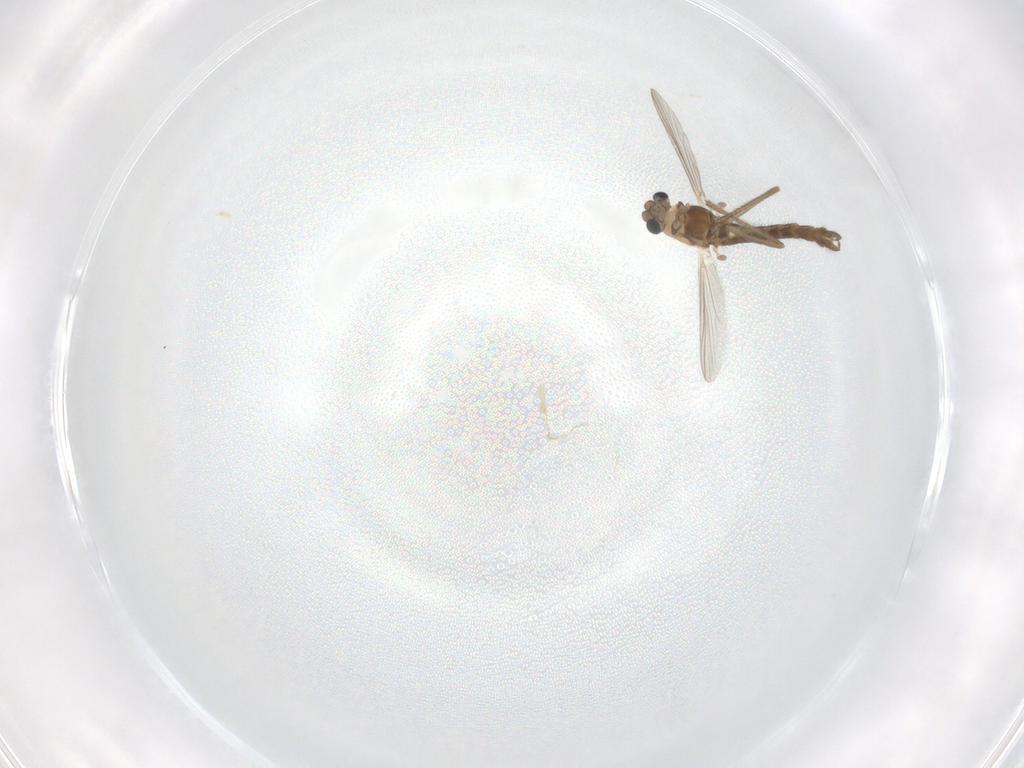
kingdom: Animalia
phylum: Arthropoda
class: Insecta
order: Diptera
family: Chironomidae
